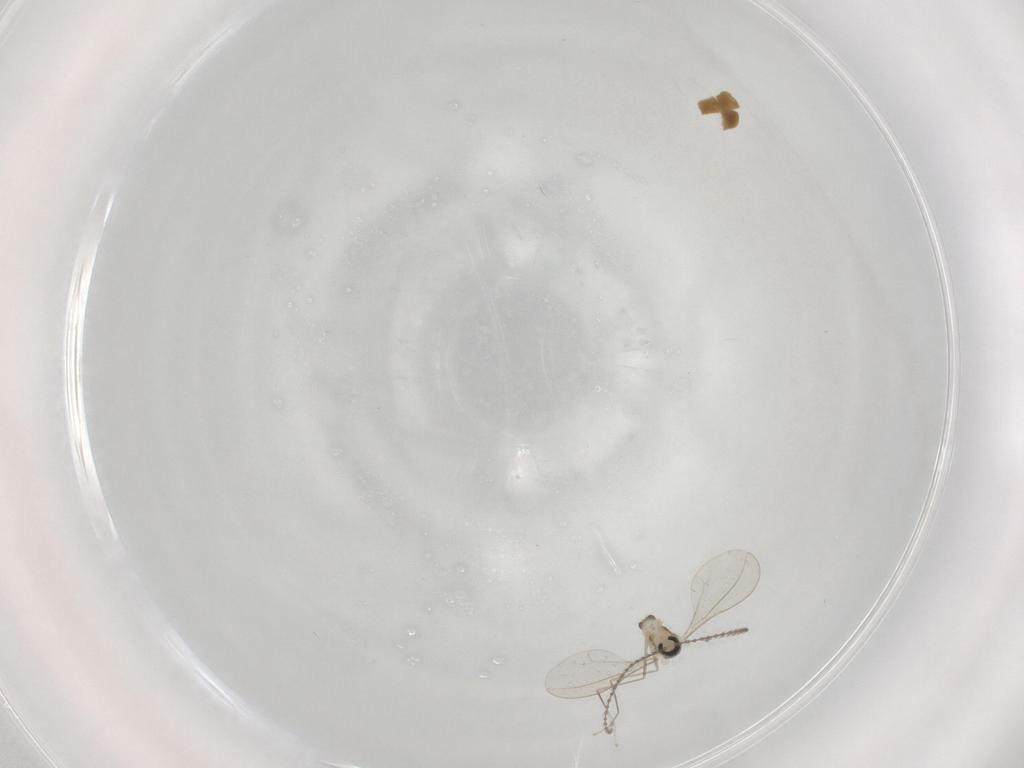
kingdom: Animalia
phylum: Arthropoda
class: Insecta
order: Diptera
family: Cecidomyiidae
